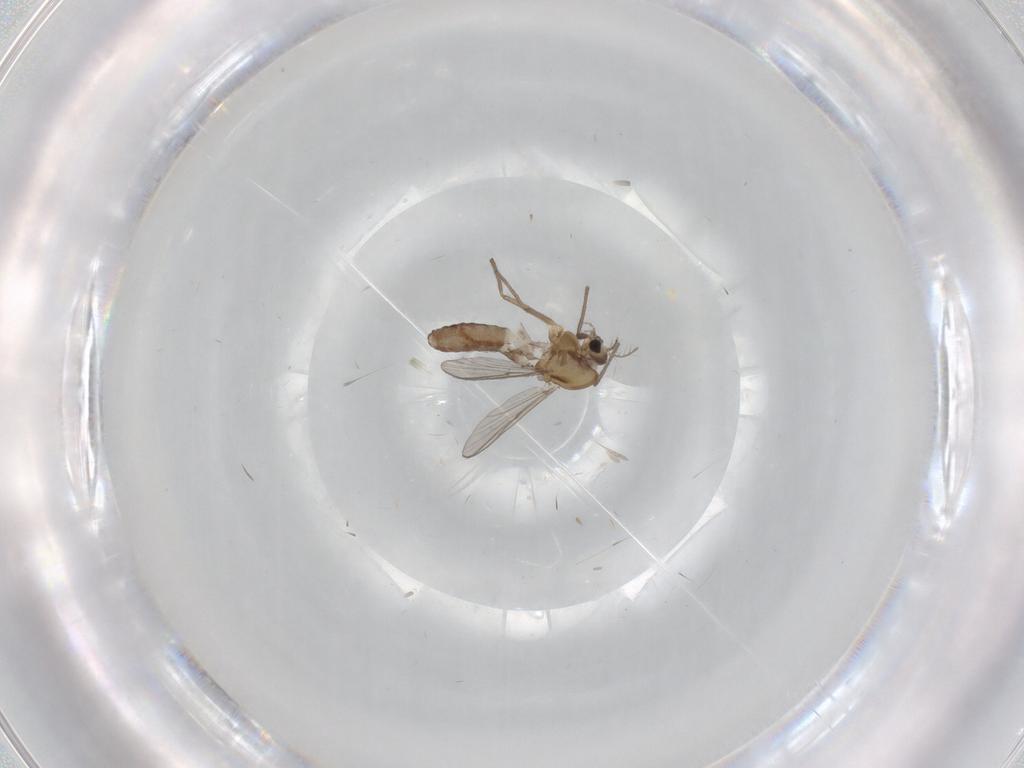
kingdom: Animalia
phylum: Arthropoda
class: Insecta
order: Diptera
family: Chironomidae
